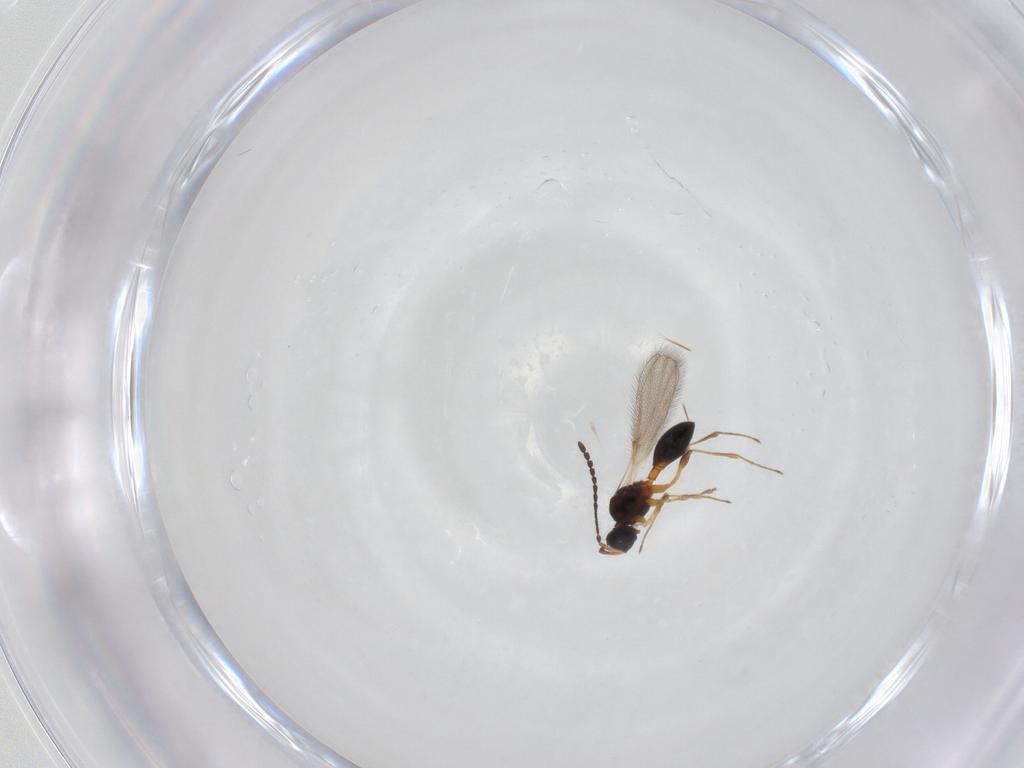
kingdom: Animalia
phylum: Arthropoda
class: Insecta
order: Hymenoptera
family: Diapriidae
